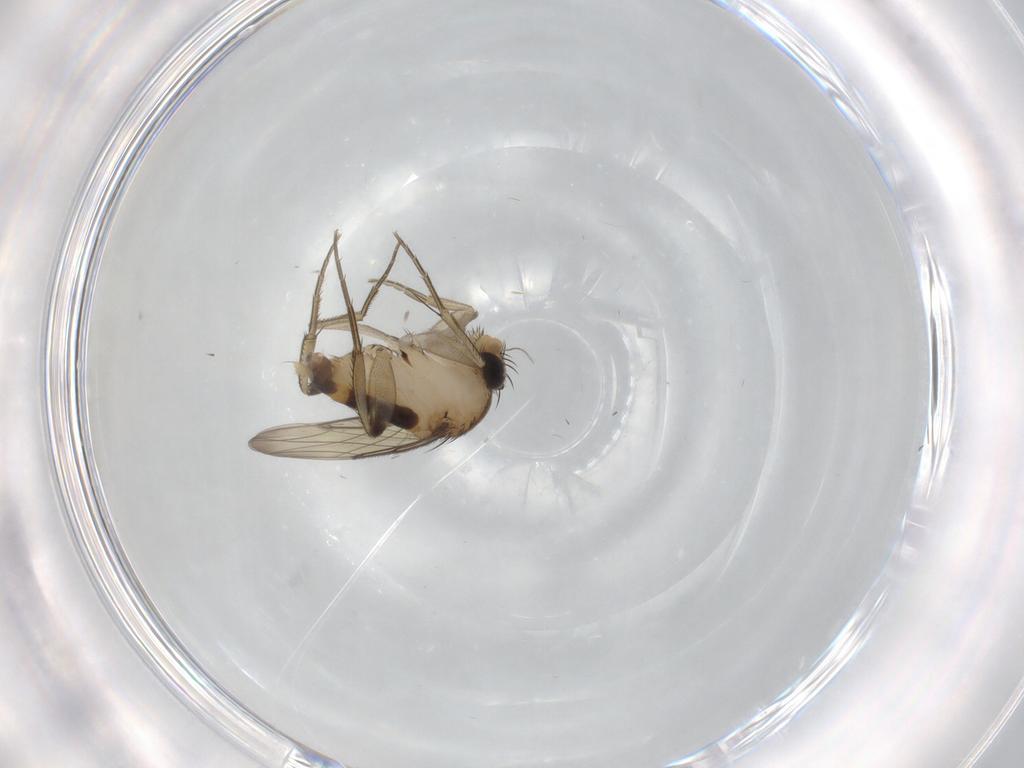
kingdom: Animalia
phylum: Arthropoda
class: Insecta
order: Diptera
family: Phoridae
